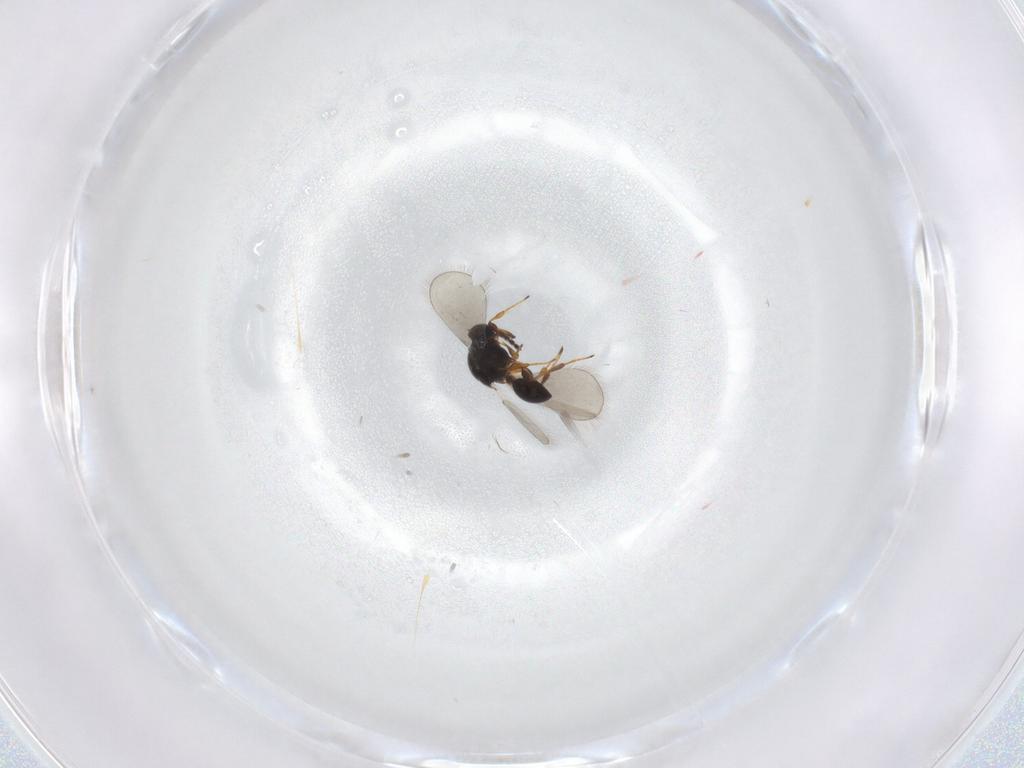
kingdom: Animalia
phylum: Arthropoda
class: Insecta
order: Hymenoptera
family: Platygastridae
